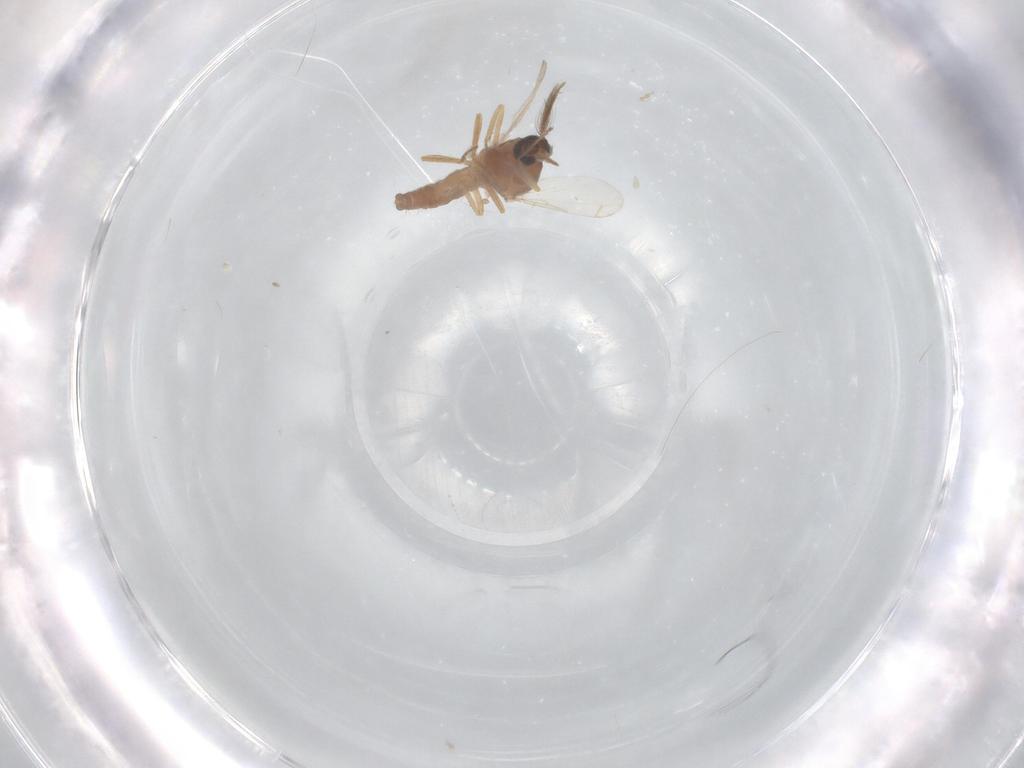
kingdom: Animalia
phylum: Arthropoda
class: Insecta
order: Diptera
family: Ceratopogonidae
